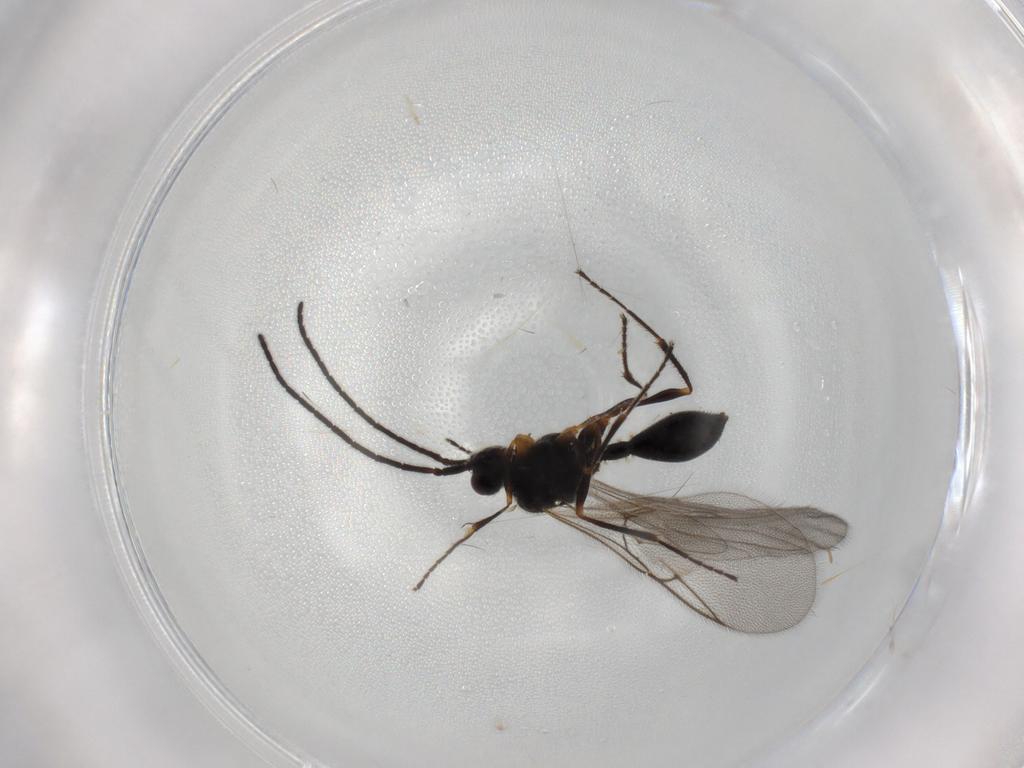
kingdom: Animalia
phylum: Arthropoda
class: Insecta
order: Hymenoptera
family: Diapriidae
